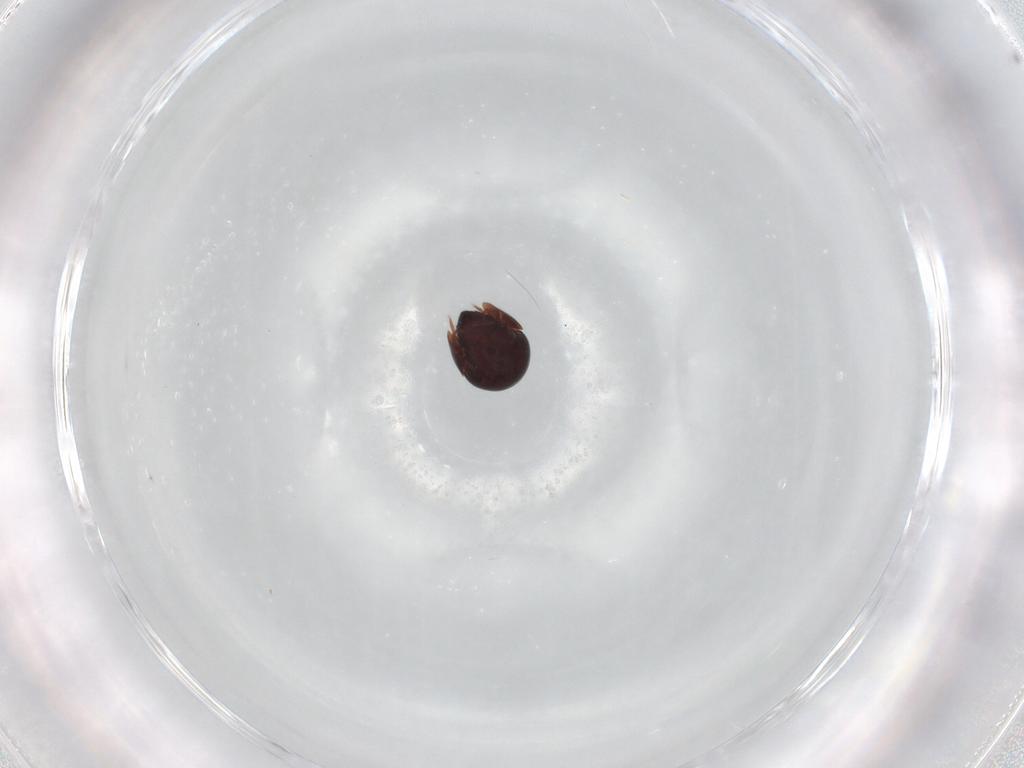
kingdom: Animalia
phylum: Arthropoda
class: Arachnida
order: Sarcoptiformes
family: Galumnidae
